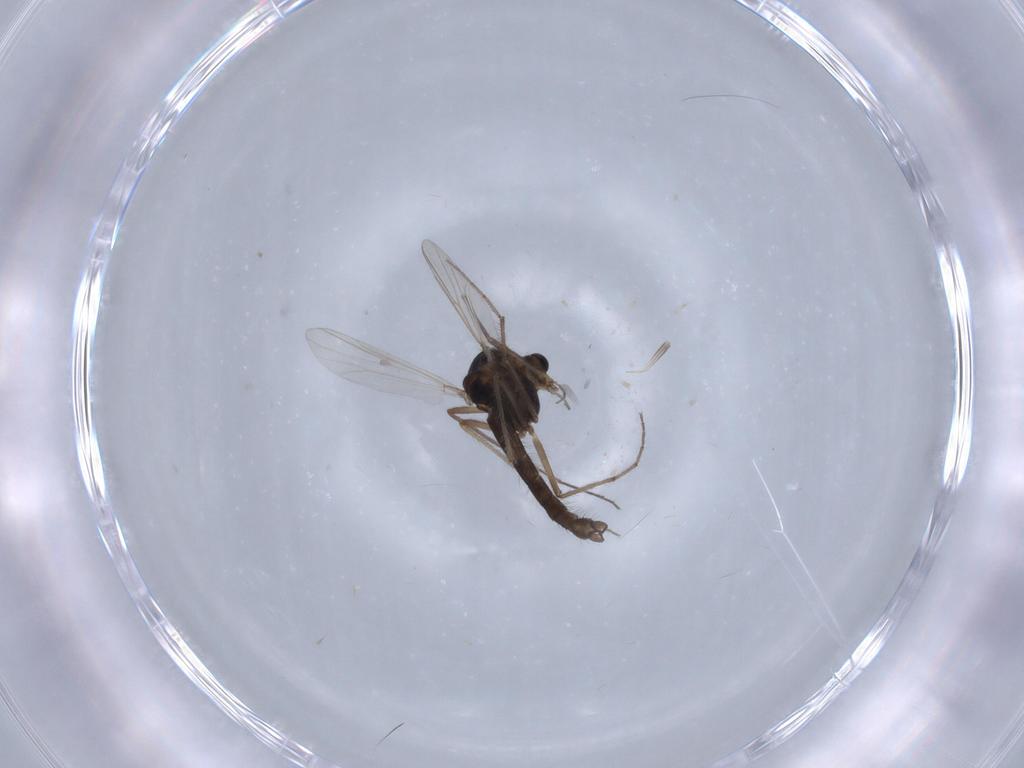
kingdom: Animalia
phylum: Arthropoda
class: Insecta
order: Diptera
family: Chironomidae
